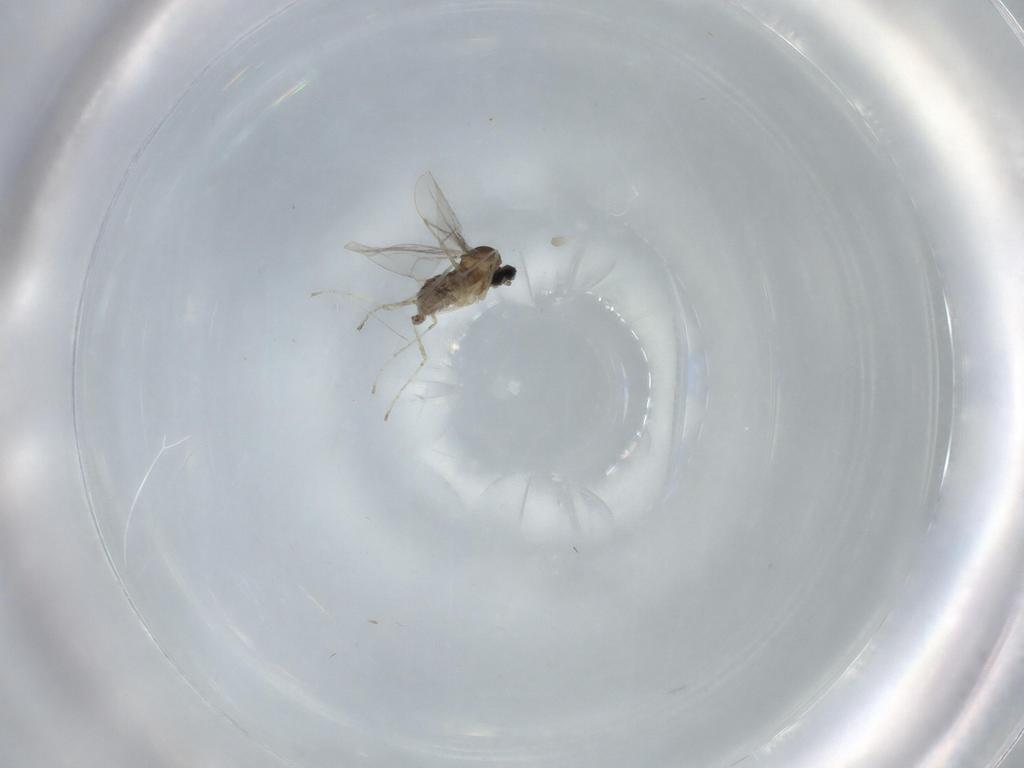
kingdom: Animalia
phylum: Arthropoda
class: Insecta
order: Diptera
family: Cecidomyiidae
